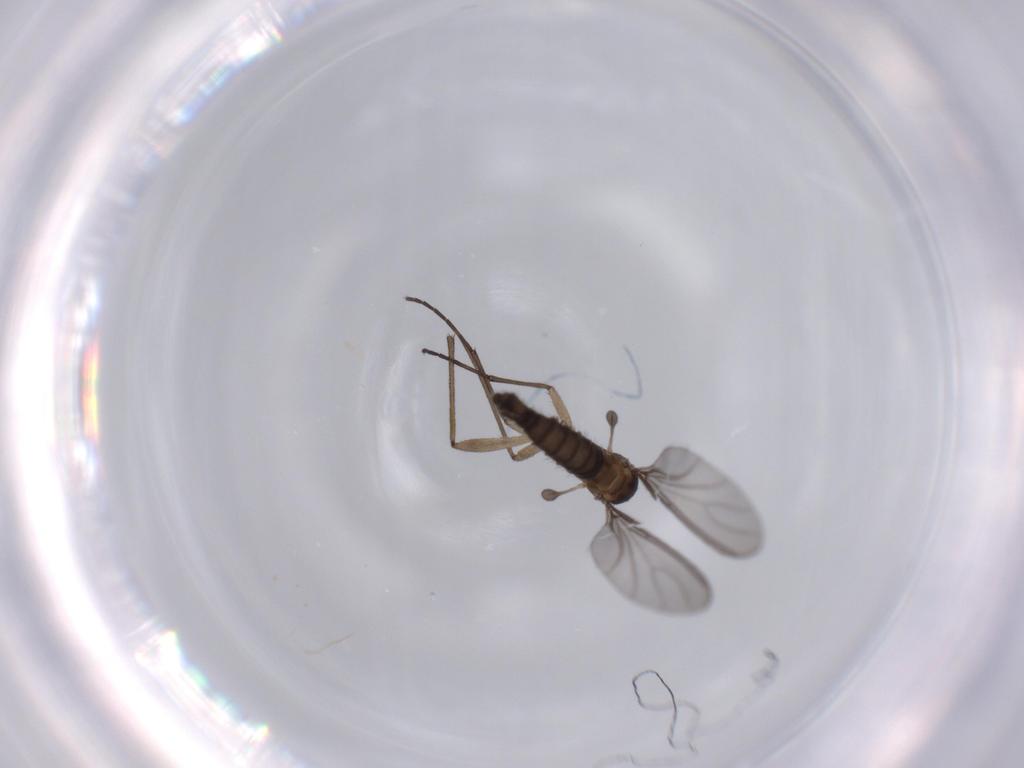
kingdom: Animalia
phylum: Arthropoda
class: Insecta
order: Diptera
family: Sciaridae
